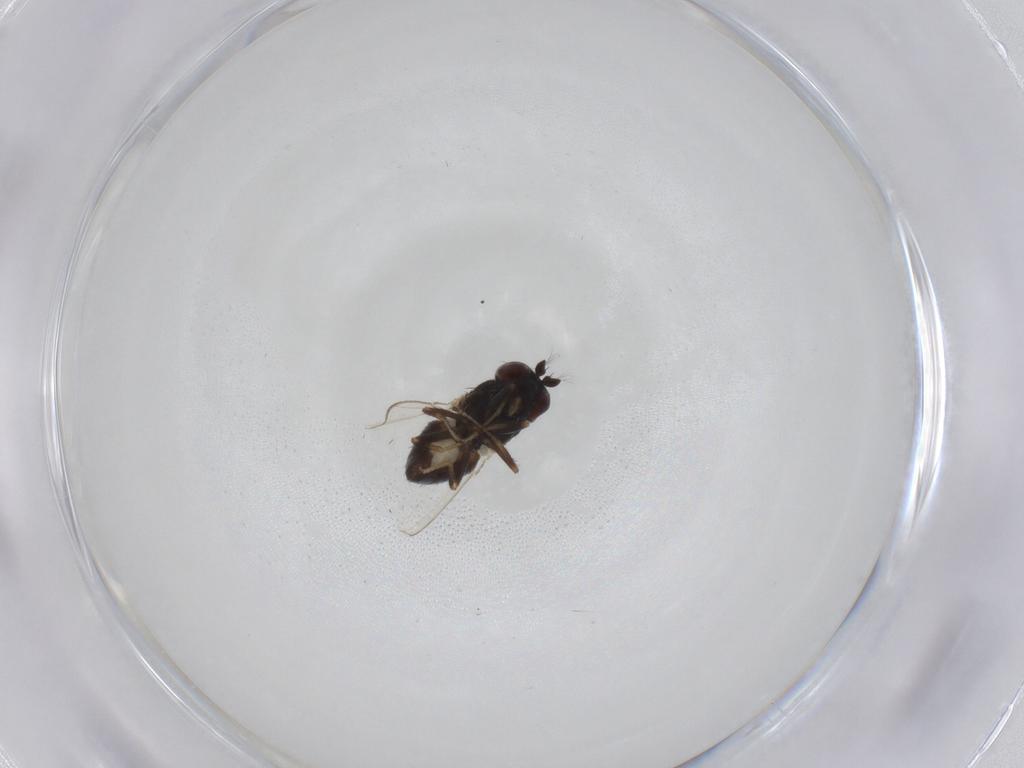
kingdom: Animalia
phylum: Arthropoda
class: Insecta
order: Diptera
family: Ephydridae
